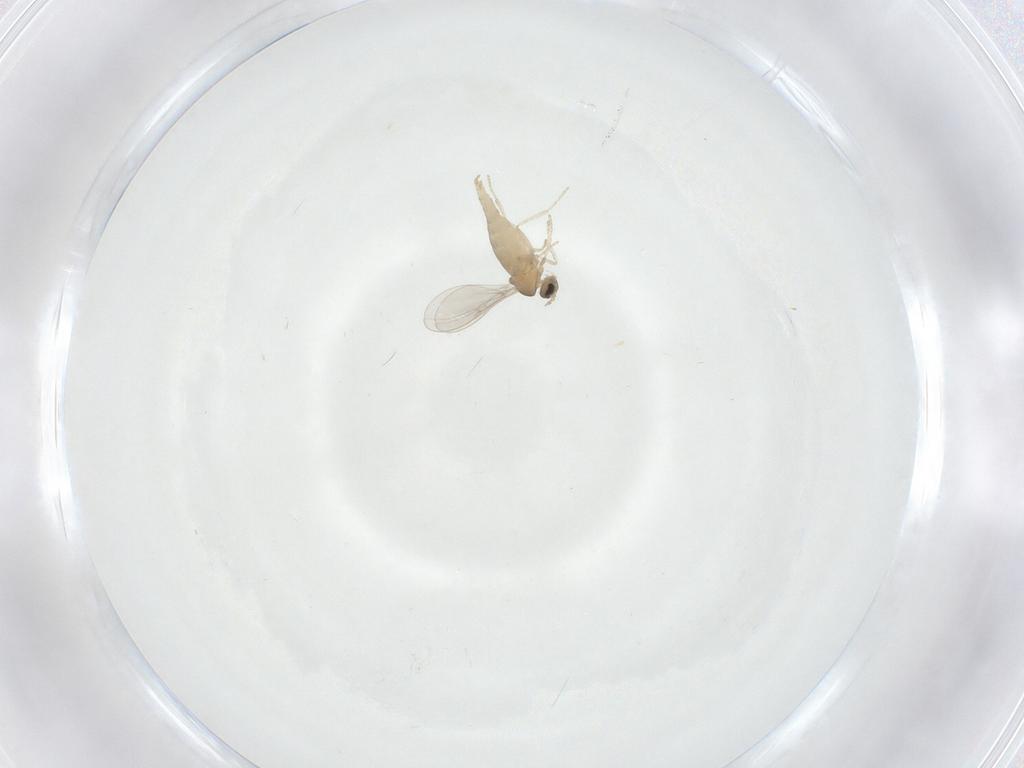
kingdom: Animalia
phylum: Arthropoda
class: Insecta
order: Diptera
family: Cecidomyiidae
